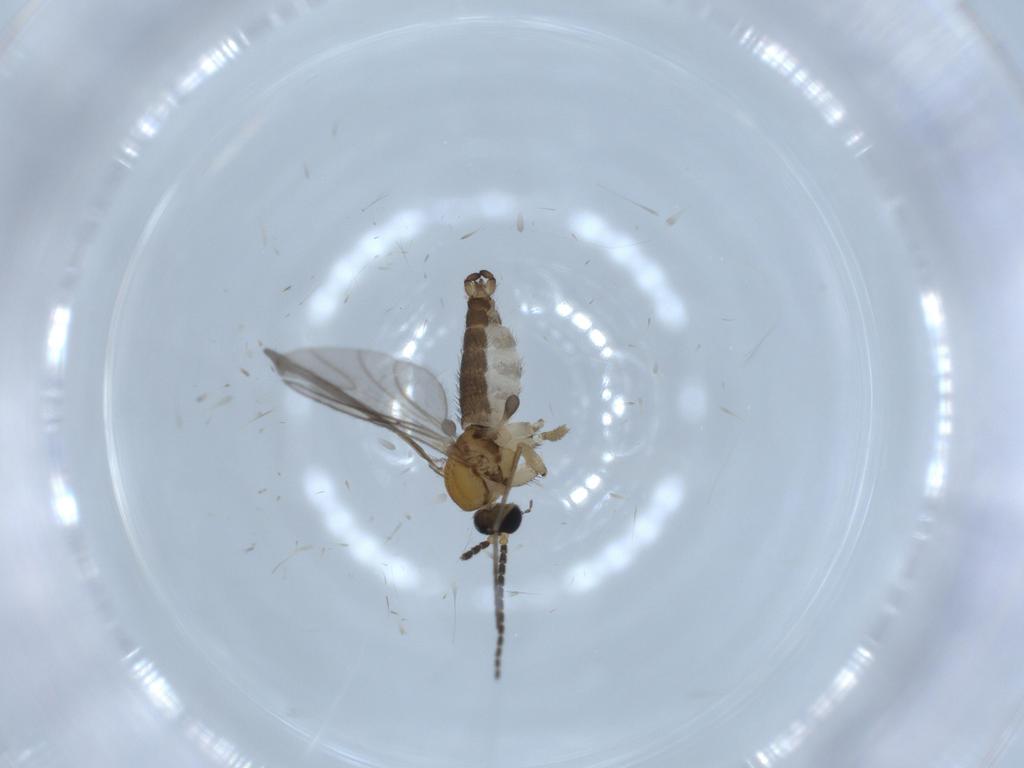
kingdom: Animalia
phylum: Arthropoda
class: Insecta
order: Diptera
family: Sciaridae
